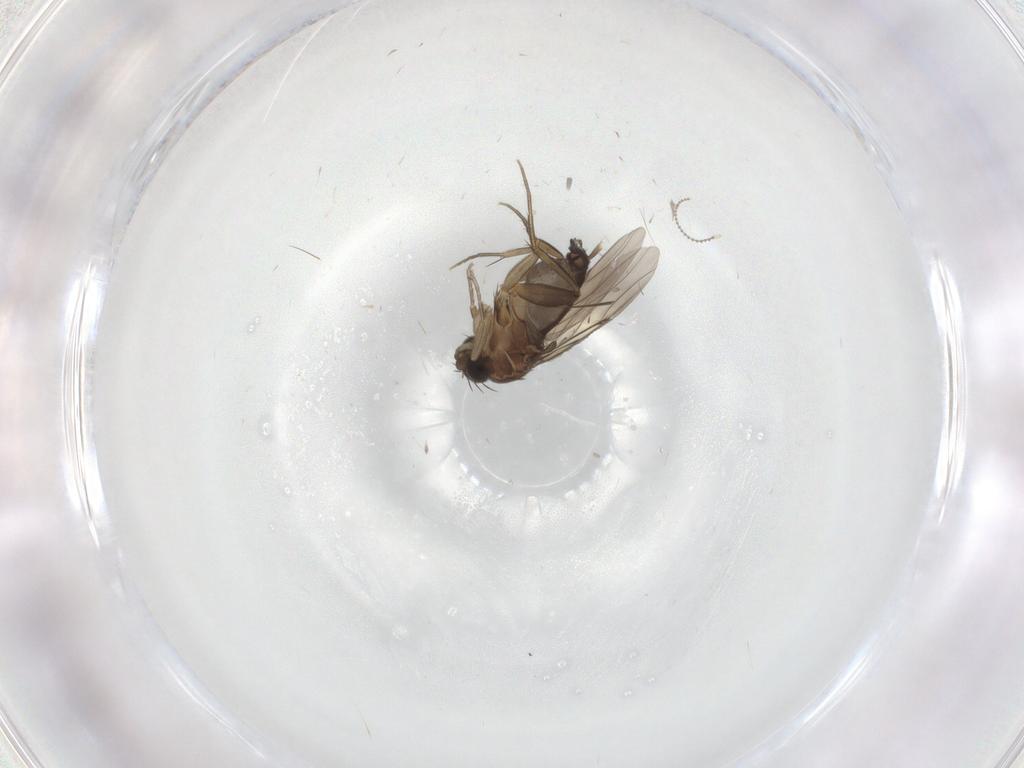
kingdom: Animalia
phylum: Arthropoda
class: Insecta
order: Diptera
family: Phoridae
